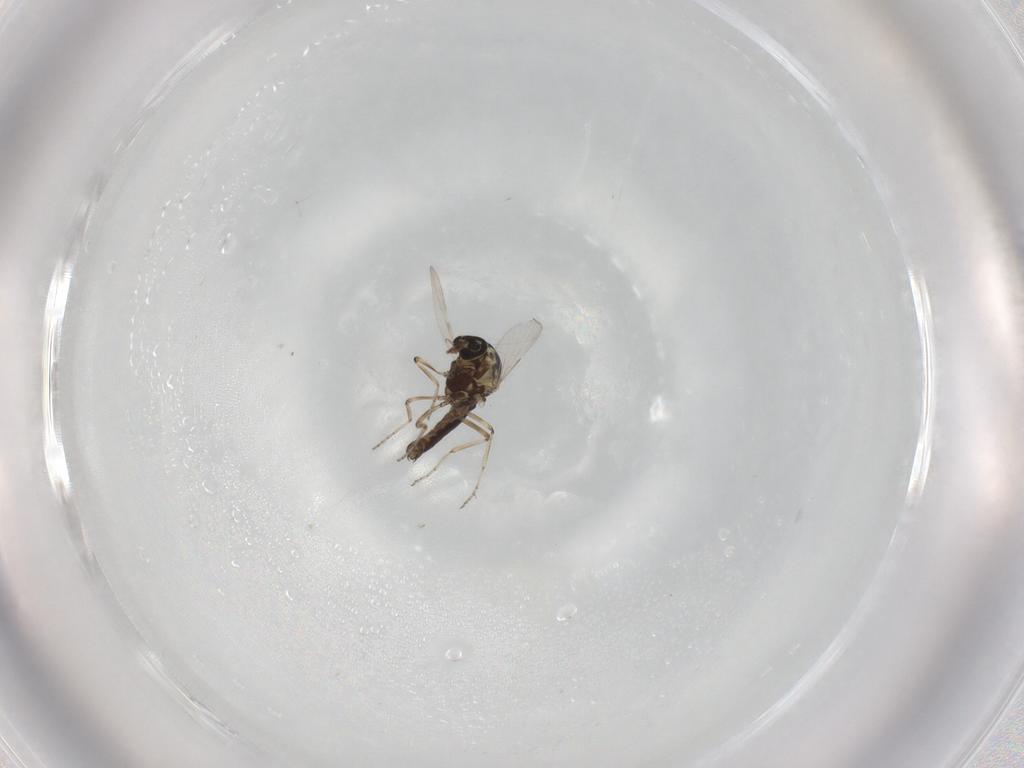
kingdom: Animalia
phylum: Arthropoda
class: Insecta
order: Diptera
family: Ceratopogonidae
